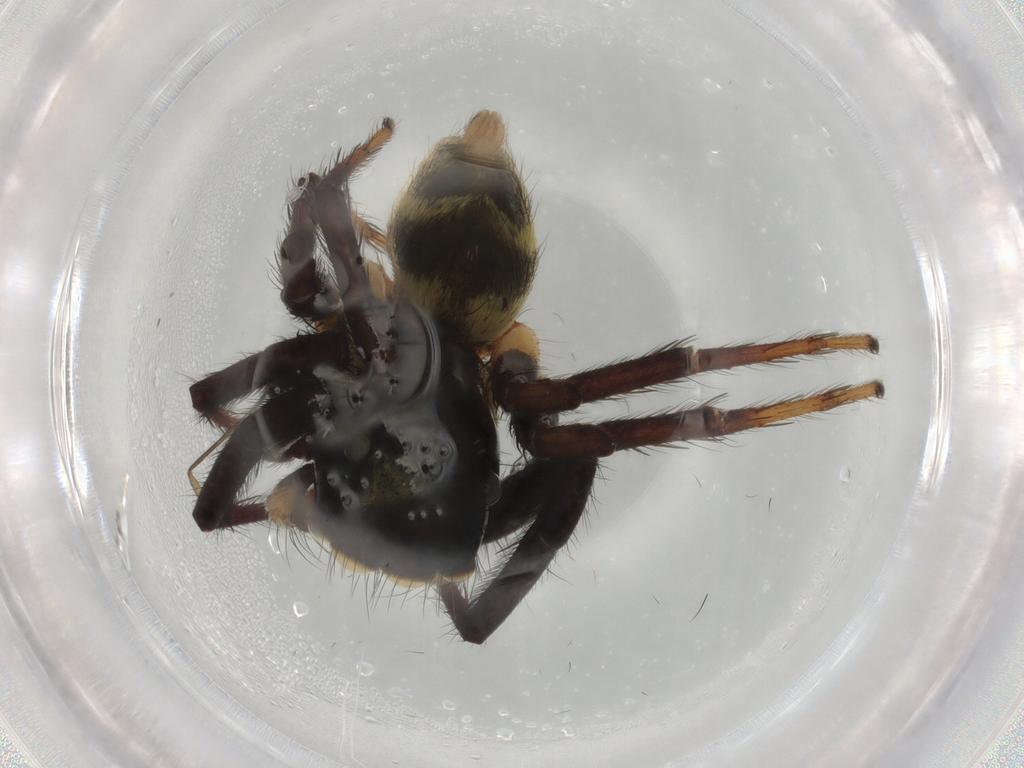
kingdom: Animalia
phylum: Arthropoda
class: Arachnida
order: Araneae
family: Salticidae
